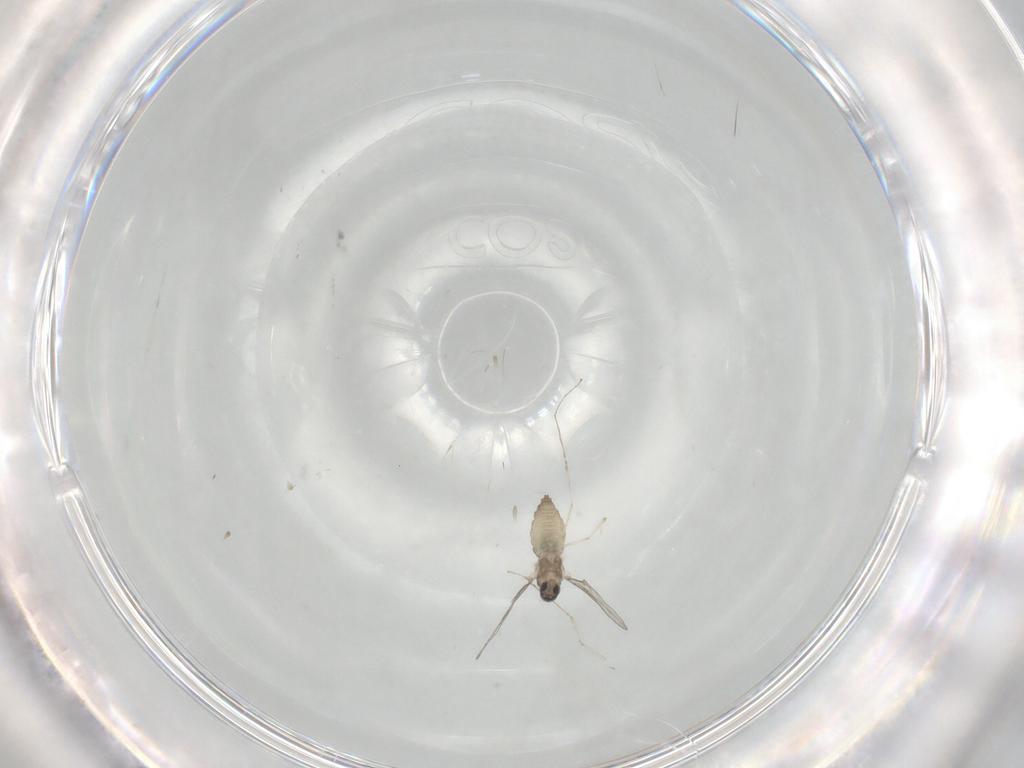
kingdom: Animalia
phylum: Arthropoda
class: Insecta
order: Diptera
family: Cecidomyiidae
